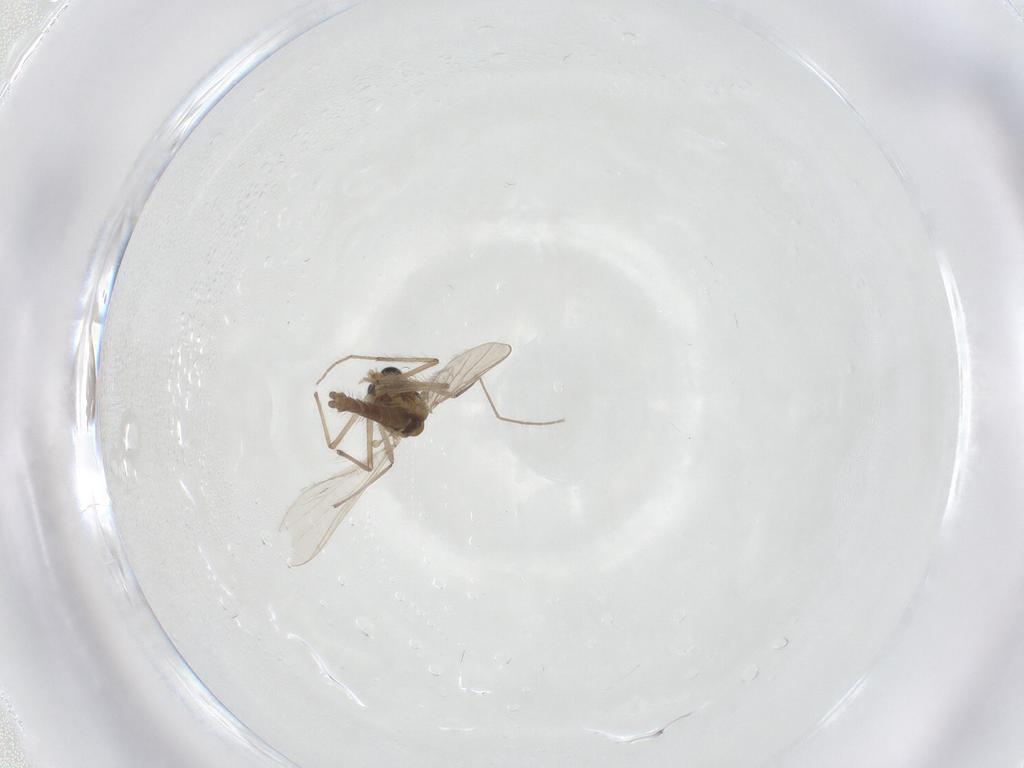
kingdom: Animalia
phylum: Arthropoda
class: Insecta
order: Diptera
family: Chironomidae
